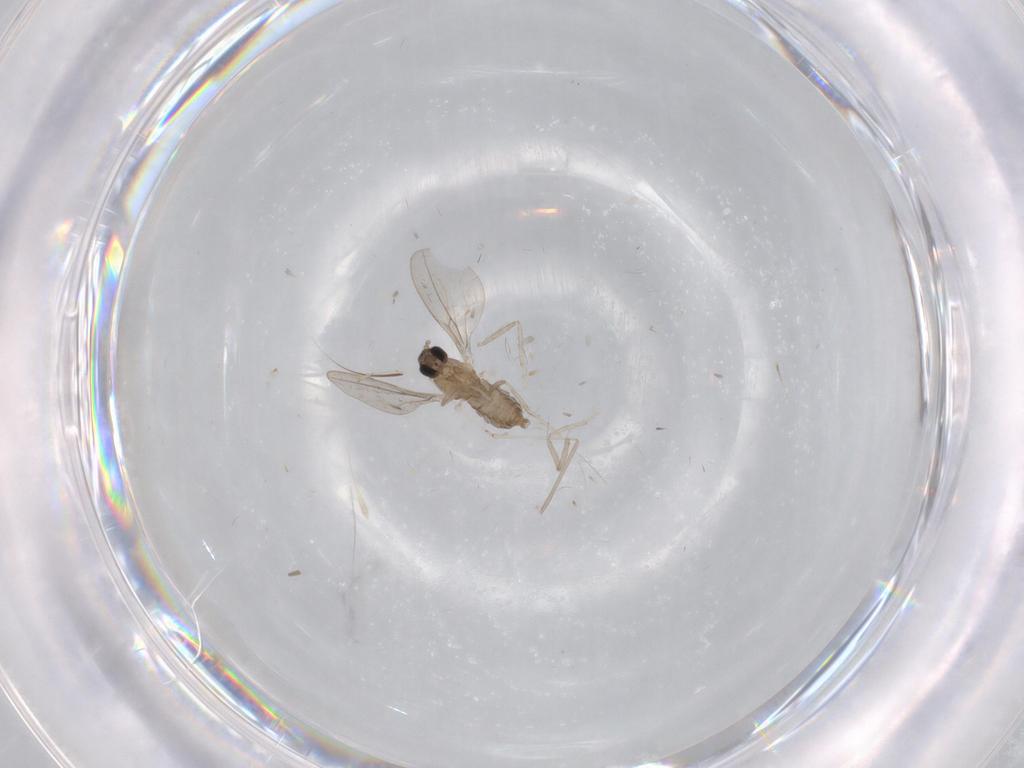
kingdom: Animalia
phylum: Arthropoda
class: Insecta
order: Diptera
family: Cecidomyiidae
